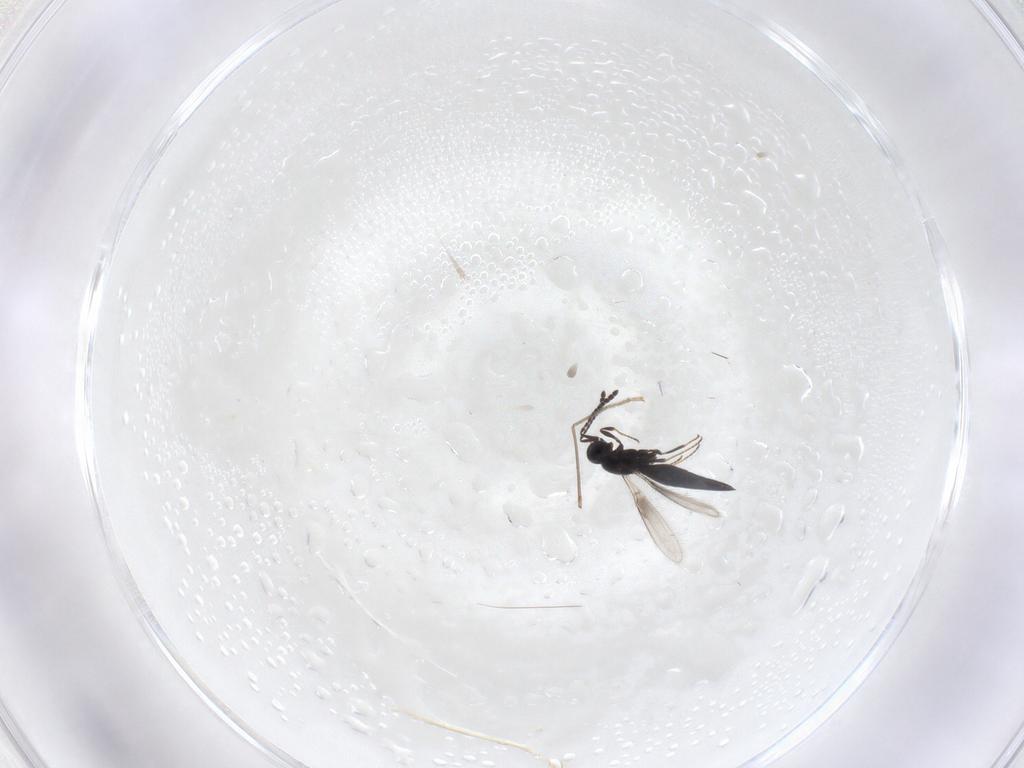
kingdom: Animalia
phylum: Arthropoda
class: Insecta
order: Hymenoptera
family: Scelionidae
